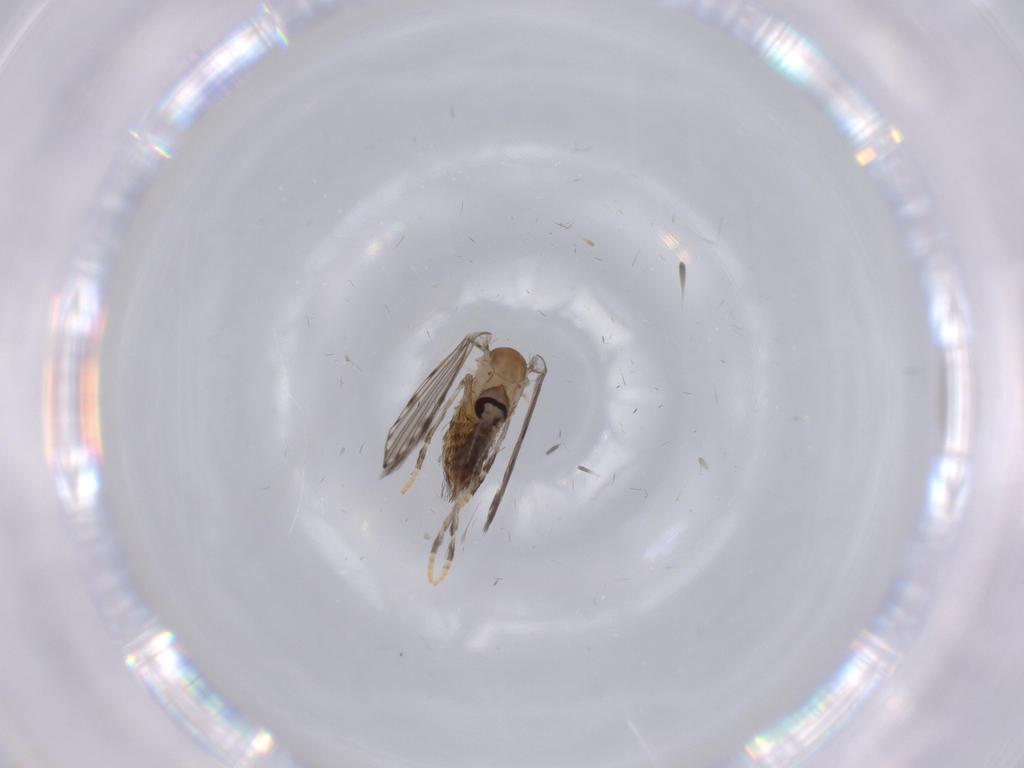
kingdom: Animalia
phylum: Arthropoda
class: Insecta
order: Diptera
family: Psychodidae
